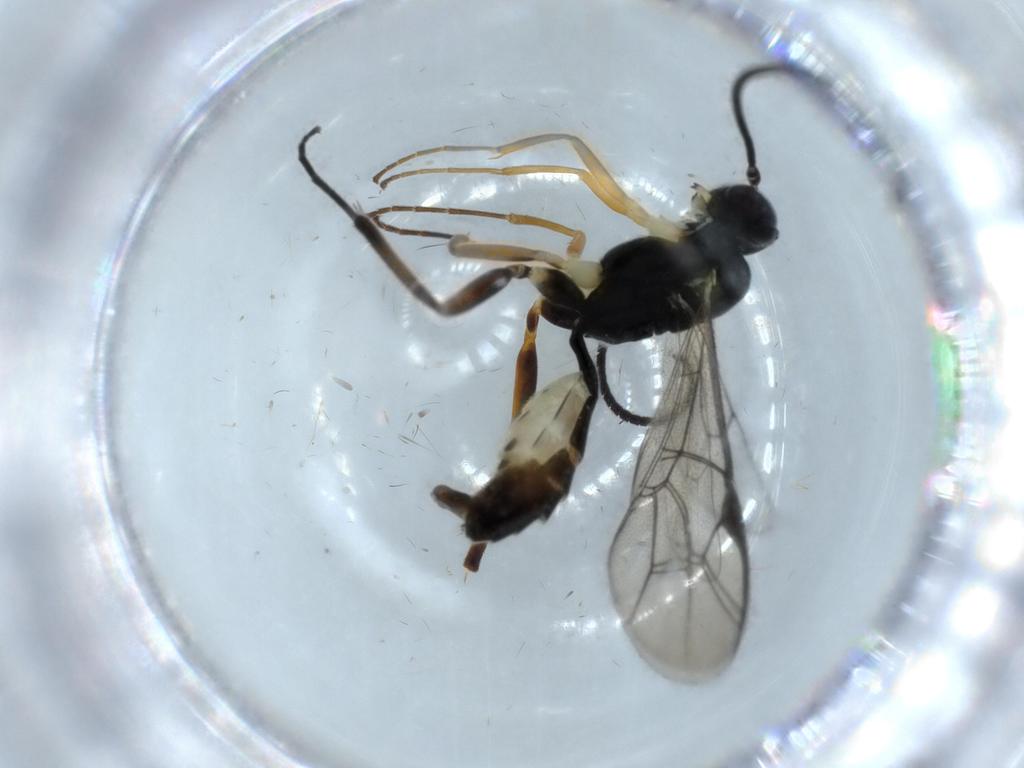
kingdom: Animalia
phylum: Arthropoda
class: Insecta
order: Hymenoptera
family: Ichneumonidae
